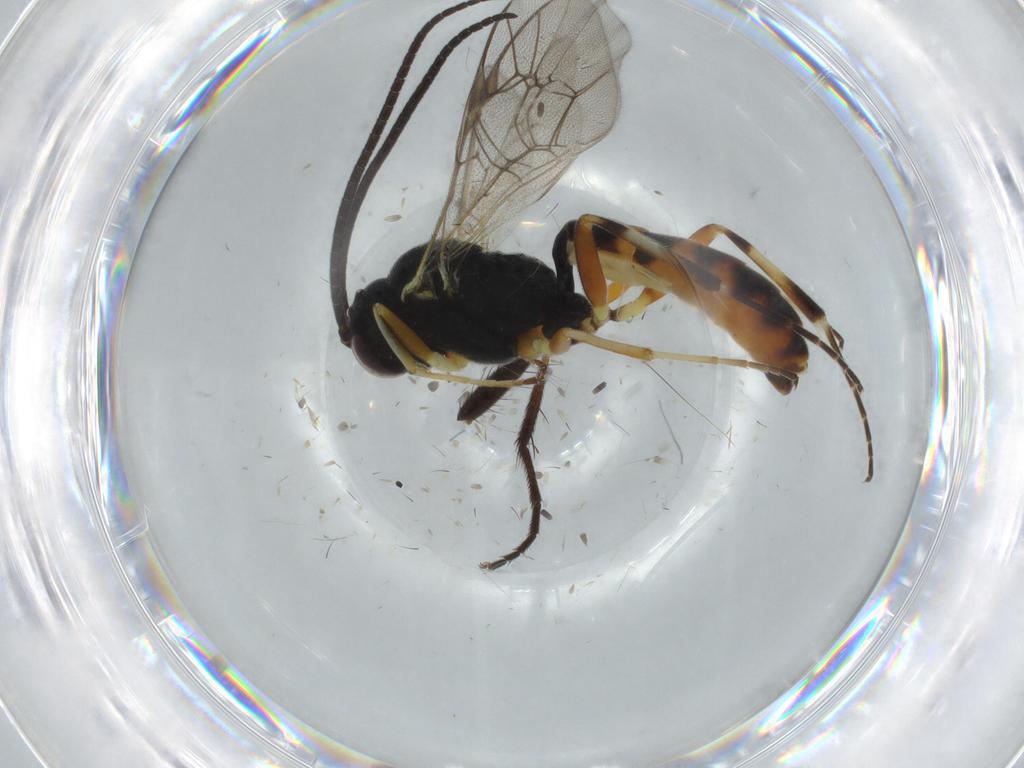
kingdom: Animalia
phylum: Arthropoda
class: Insecta
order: Hymenoptera
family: Ichneumonidae
